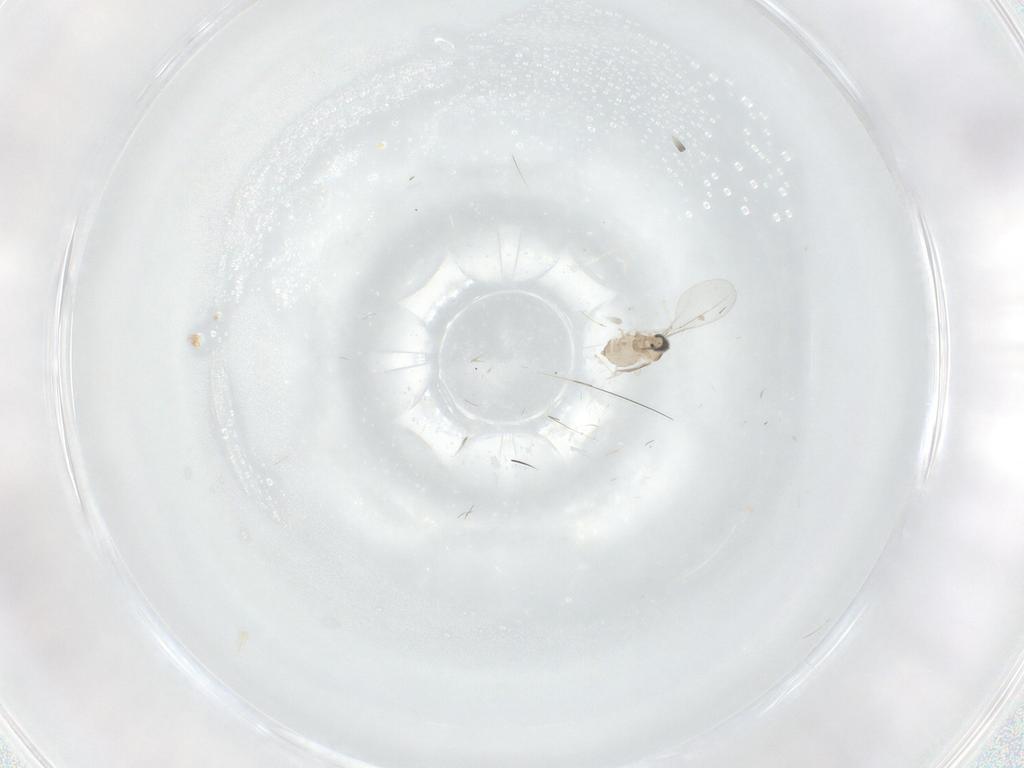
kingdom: Animalia
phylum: Arthropoda
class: Insecta
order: Diptera
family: Ceratopogonidae
